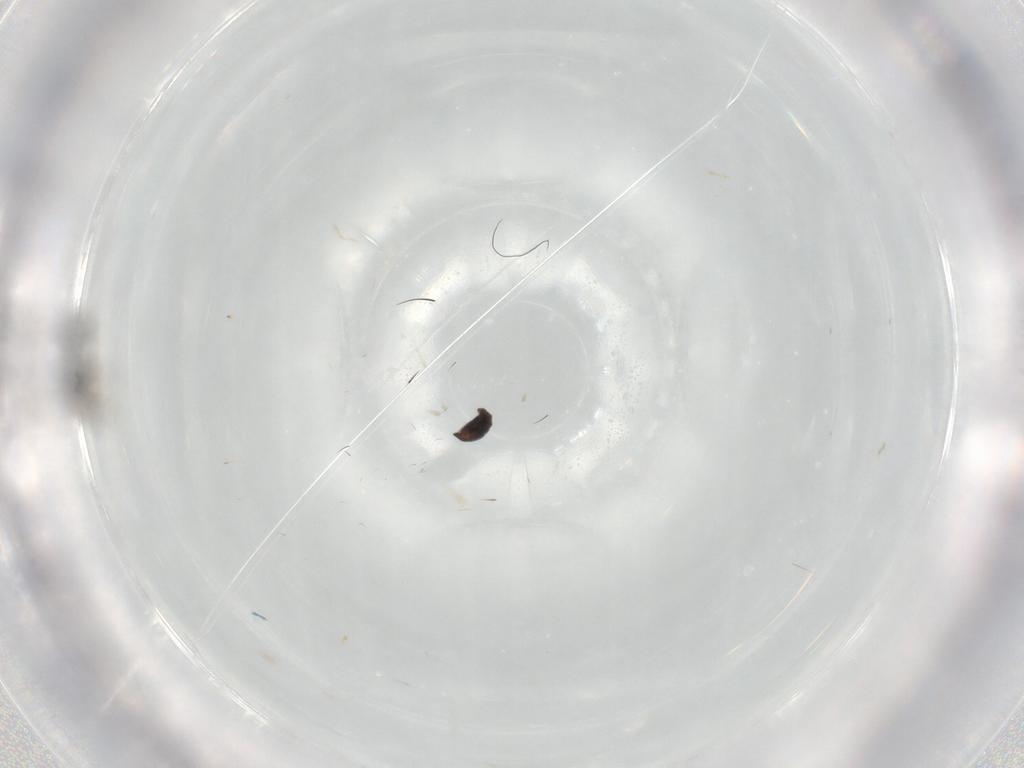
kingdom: Animalia
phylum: Arthropoda
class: Insecta
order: Hymenoptera
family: Bethylidae
